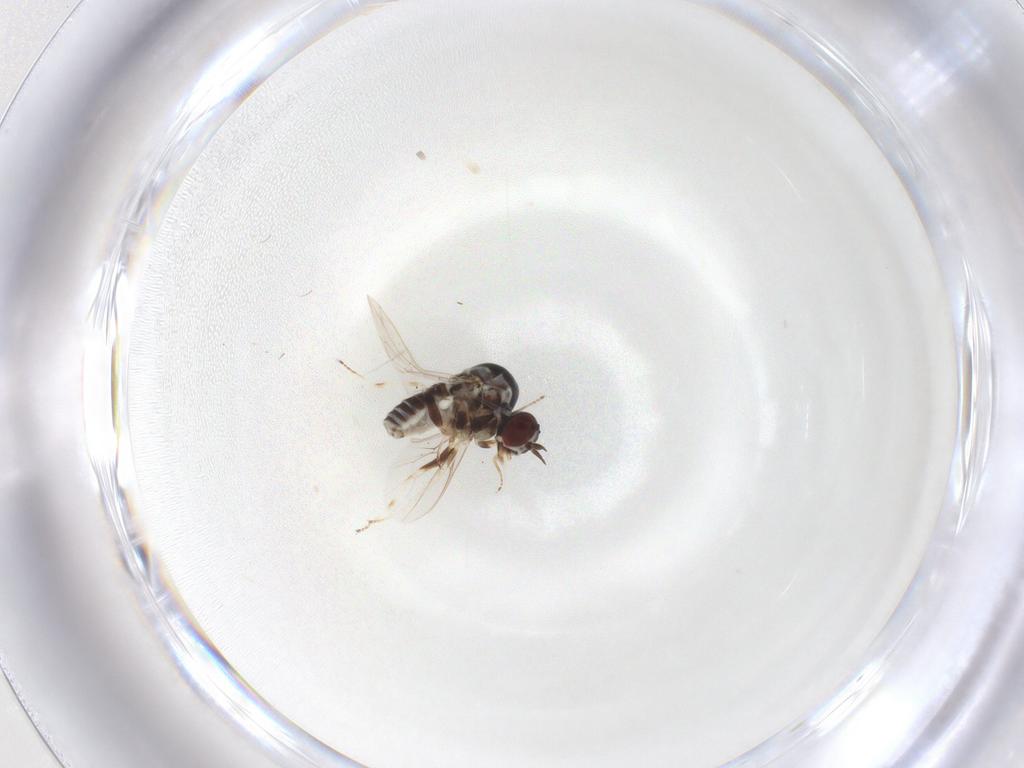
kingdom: Animalia
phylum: Arthropoda
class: Insecta
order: Diptera
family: Bombyliidae
